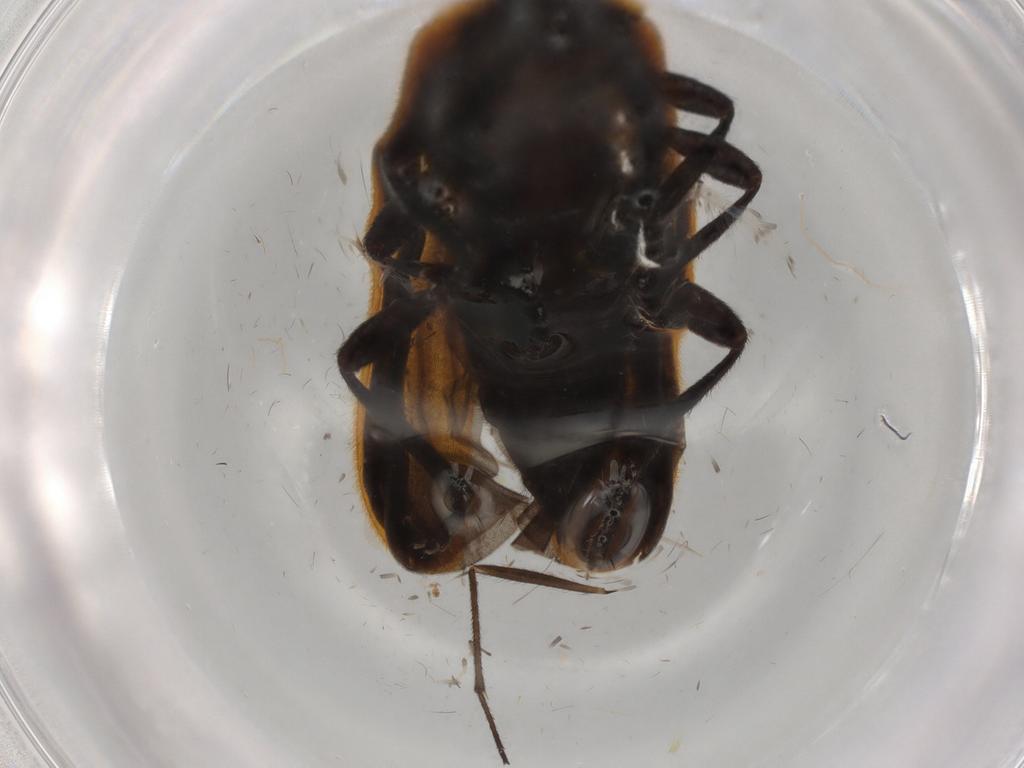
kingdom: Animalia
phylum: Arthropoda
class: Insecta
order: Coleoptera
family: Lycidae
